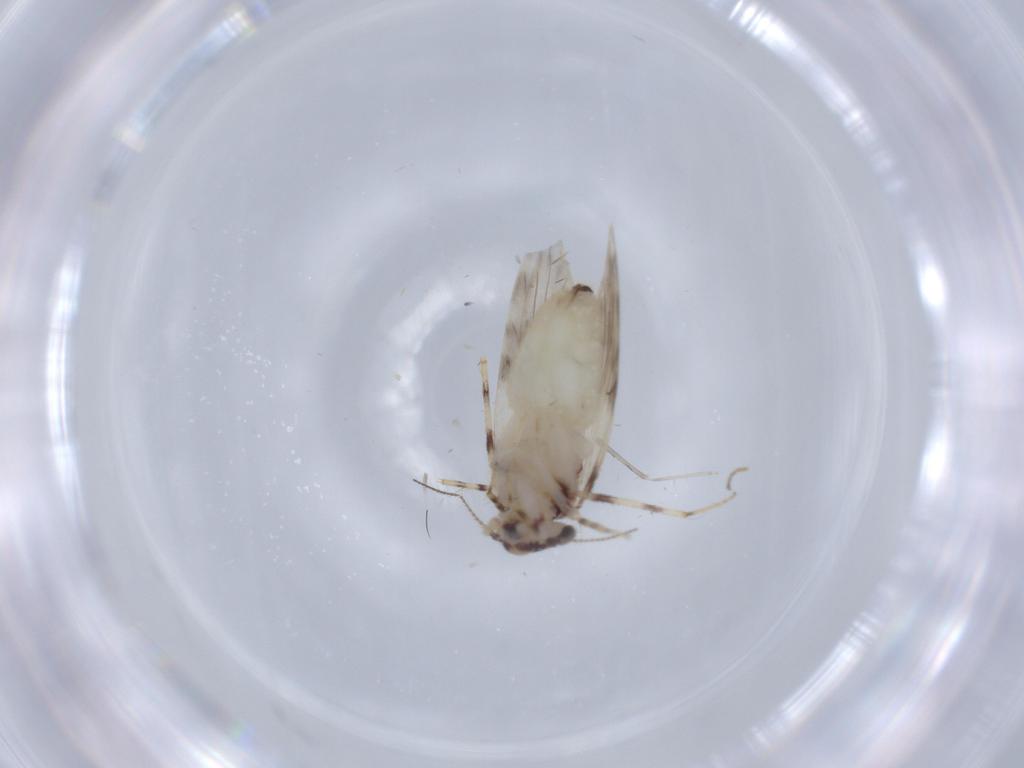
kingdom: Animalia
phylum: Arthropoda
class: Insecta
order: Psocodea
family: Lepidopsocidae
